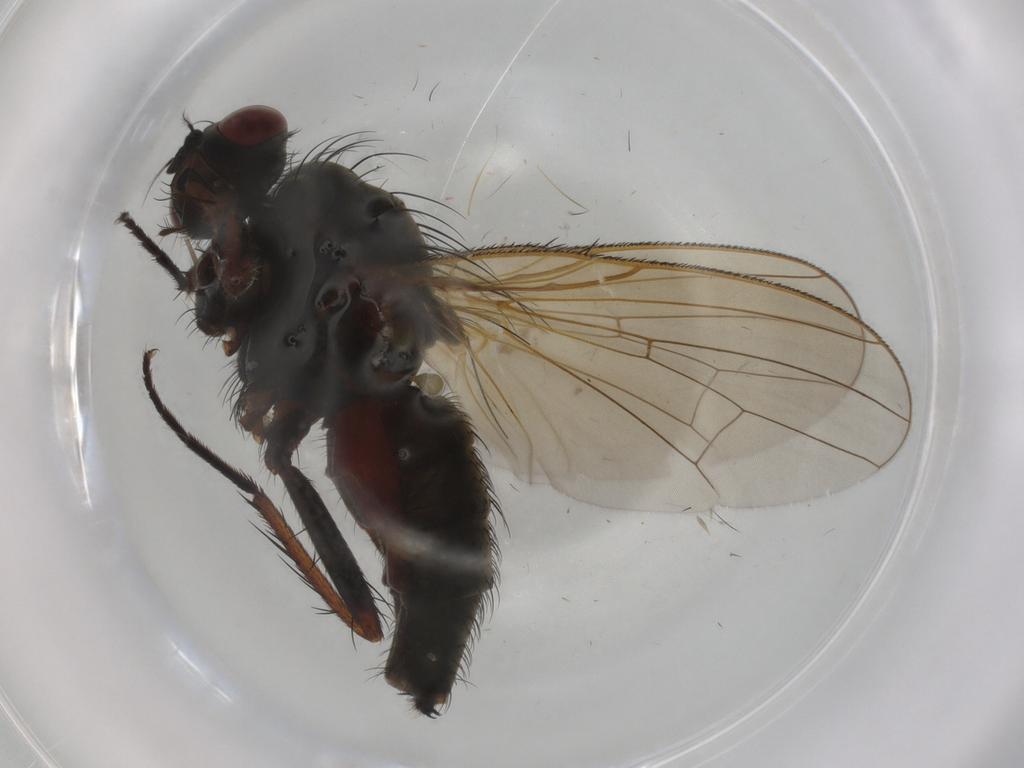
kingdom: Animalia
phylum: Arthropoda
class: Insecta
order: Diptera
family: Anthomyiidae
